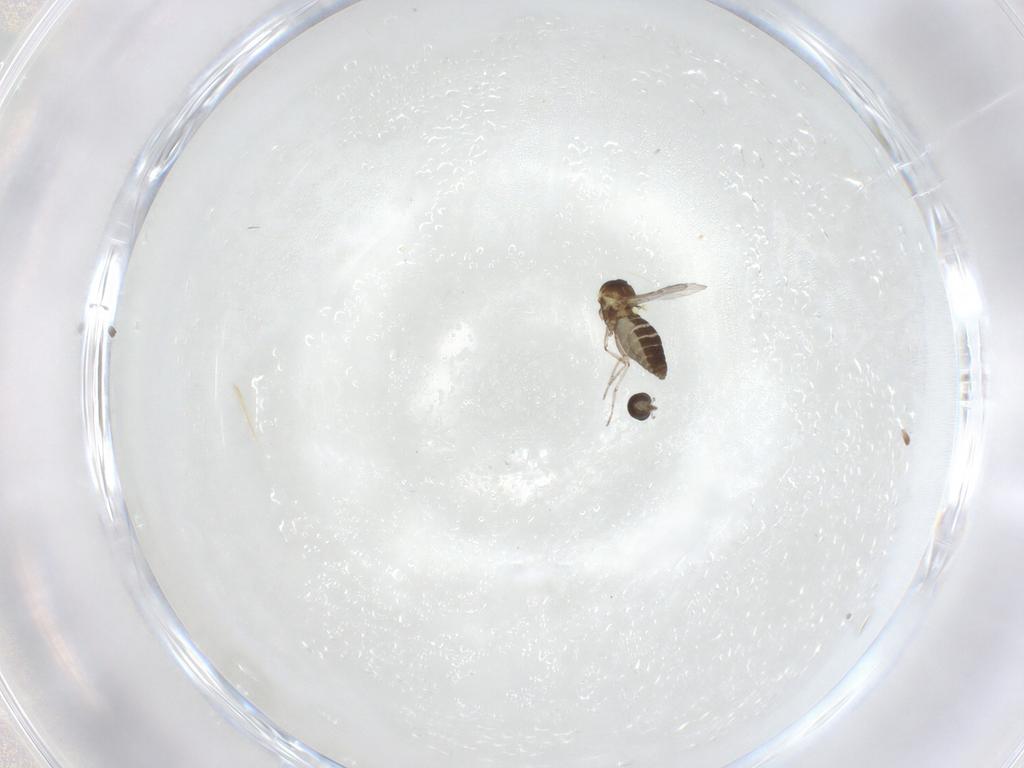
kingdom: Animalia
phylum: Arthropoda
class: Insecta
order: Diptera
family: Ceratopogonidae
